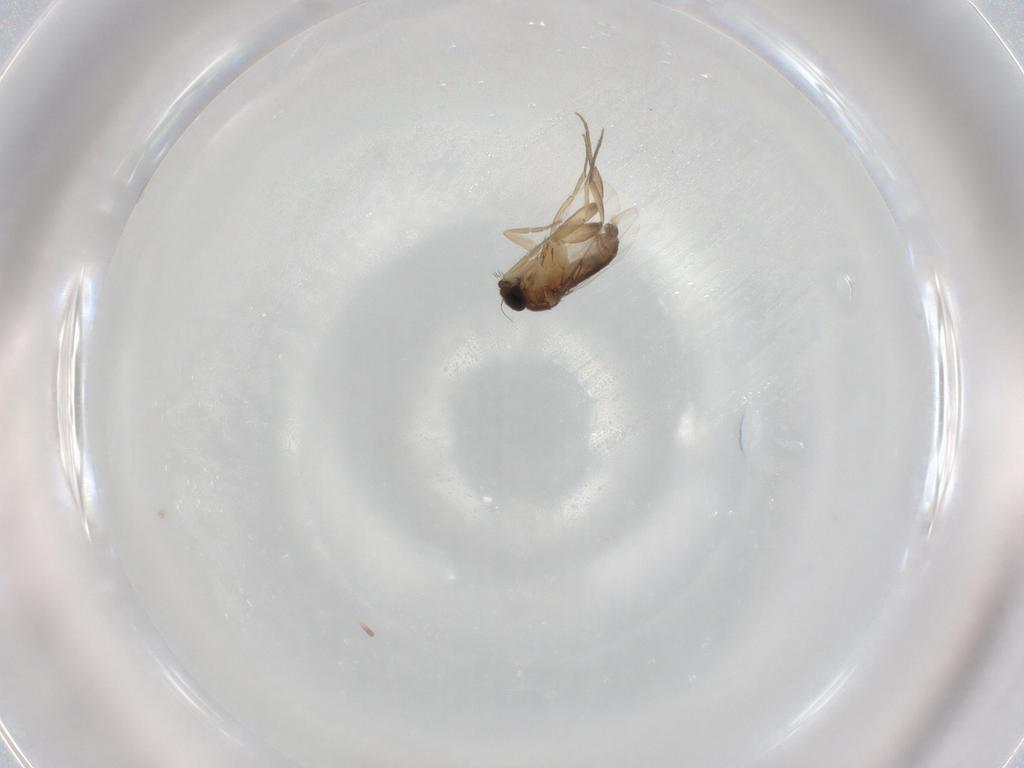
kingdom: Animalia
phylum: Arthropoda
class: Insecta
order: Diptera
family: Phoridae
